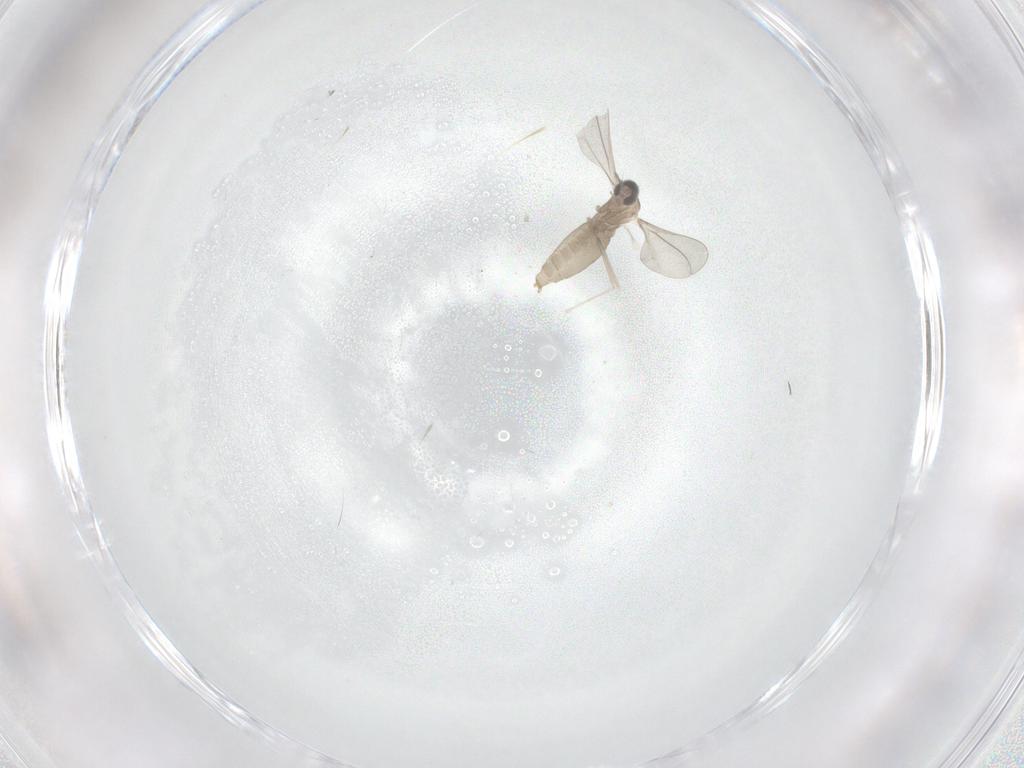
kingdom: Animalia
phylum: Arthropoda
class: Insecta
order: Diptera
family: Cecidomyiidae
